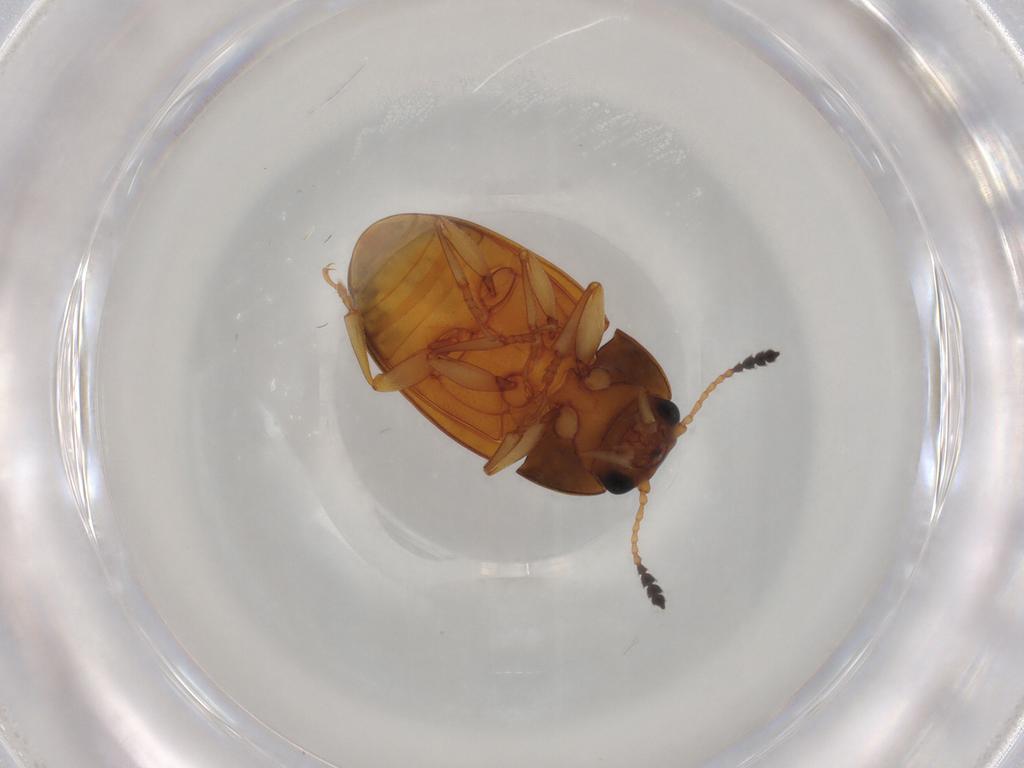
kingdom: Animalia
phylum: Arthropoda
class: Insecta
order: Coleoptera
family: Erotylidae
